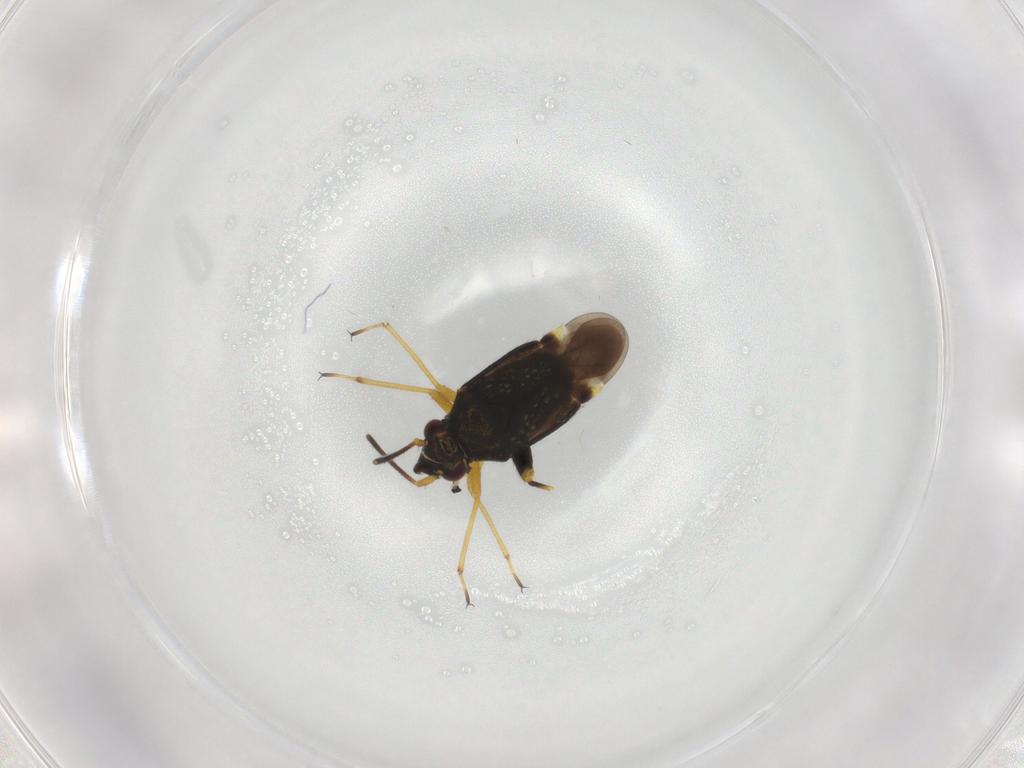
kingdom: Animalia
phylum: Arthropoda
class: Insecta
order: Hemiptera
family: Miridae
